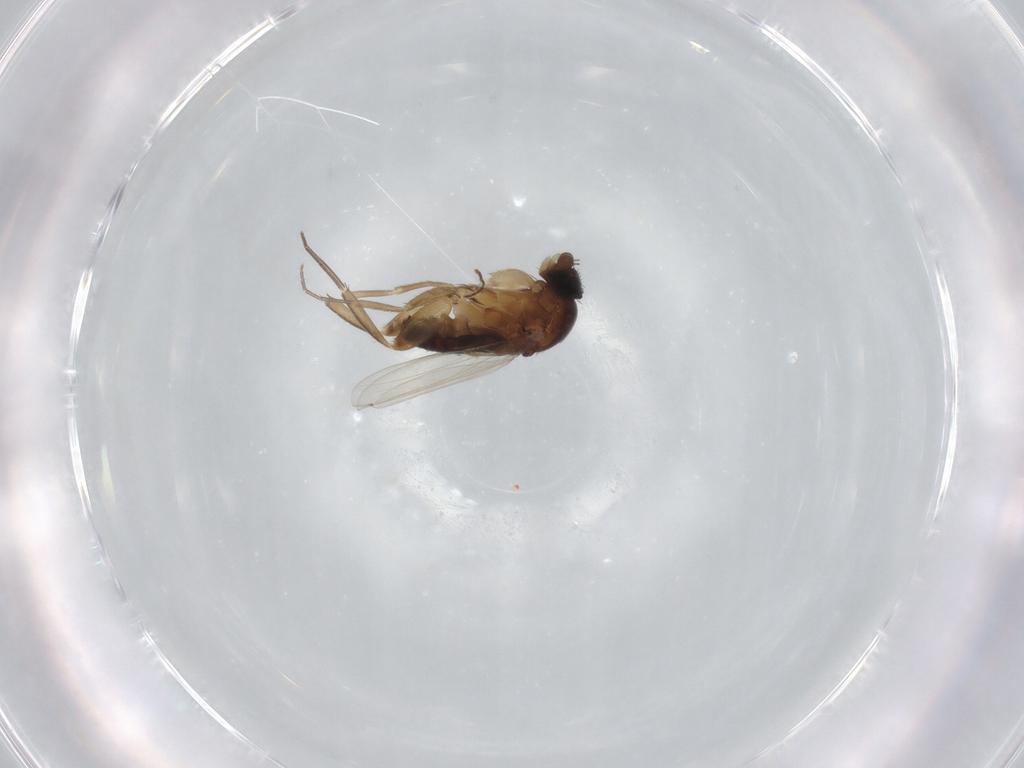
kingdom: Animalia
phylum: Arthropoda
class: Insecta
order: Diptera
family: Phoridae
